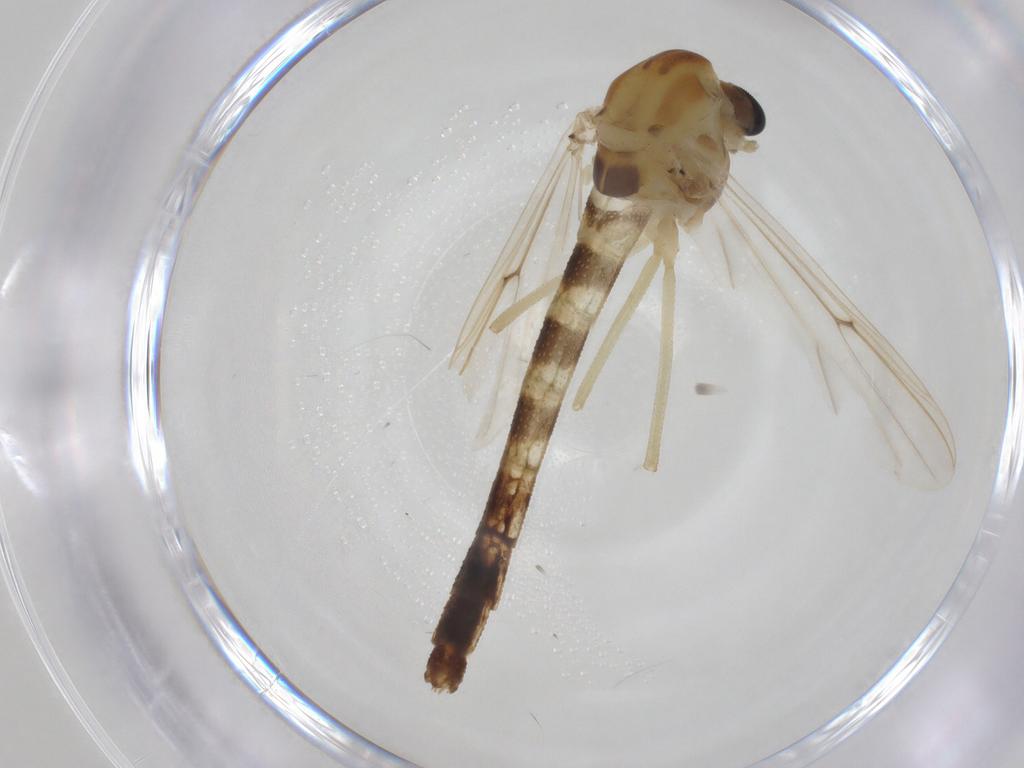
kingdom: Animalia
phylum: Arthropoda
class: Insecta
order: Diptera
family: Chironomidae
